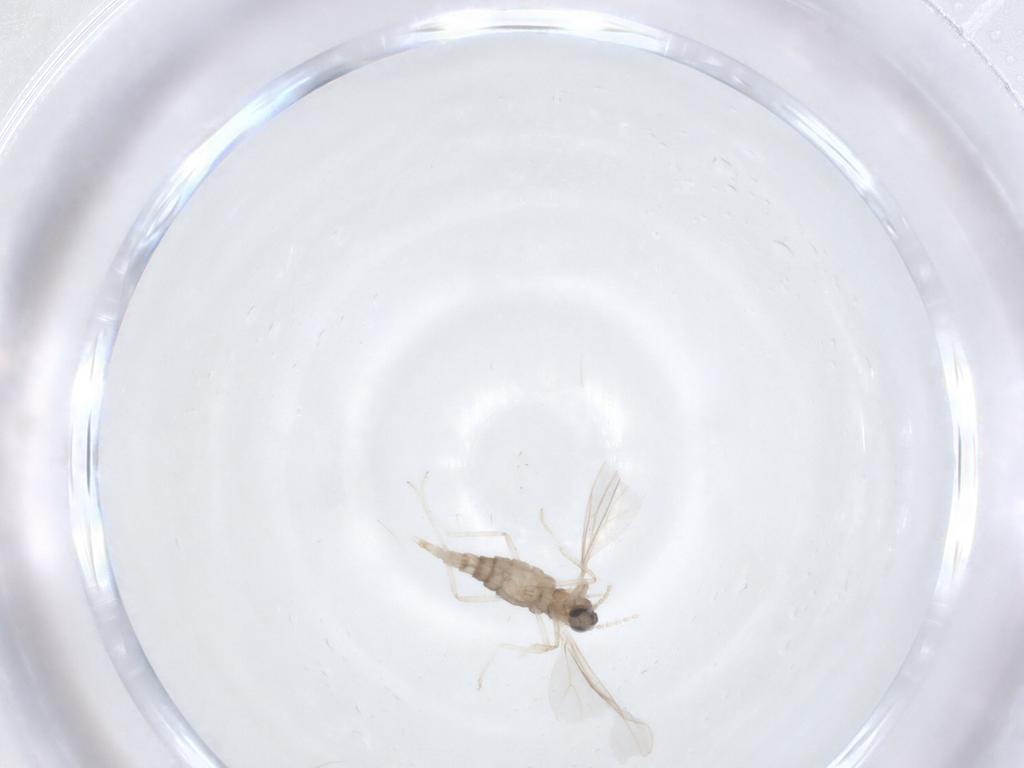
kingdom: Animalia
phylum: Arthropoda
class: Insecta
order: Diptera
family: Cecidomyiidae
